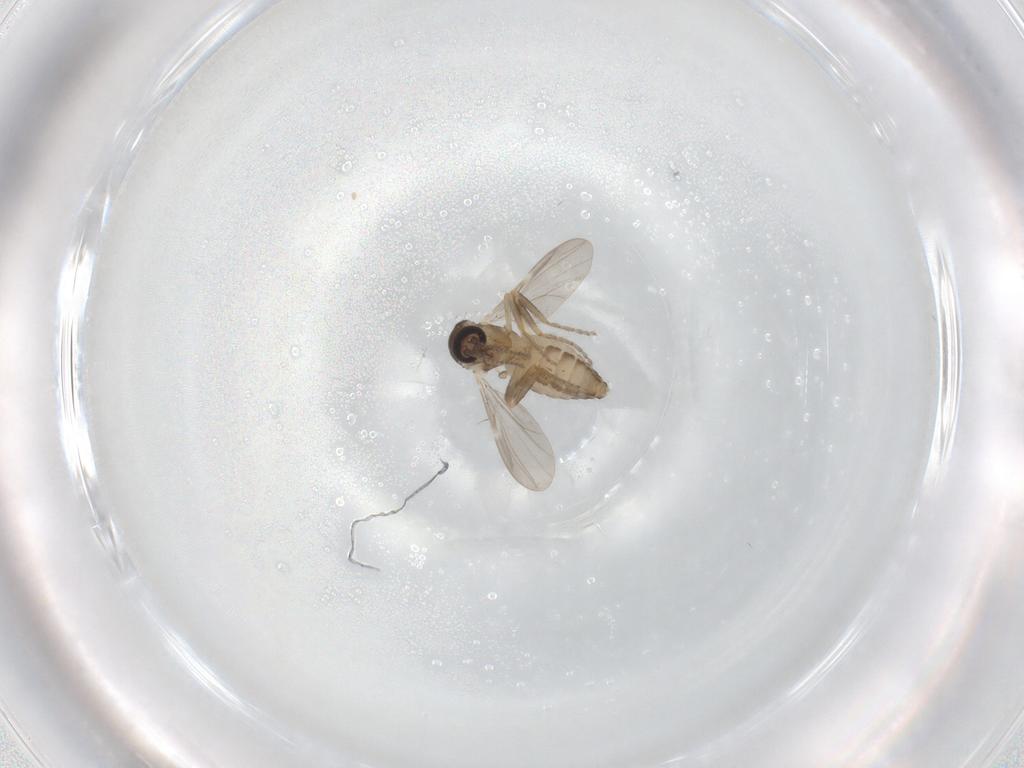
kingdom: Animalia
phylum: Arthropoda
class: Insecta
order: Diptera
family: Ceratopogonidae
